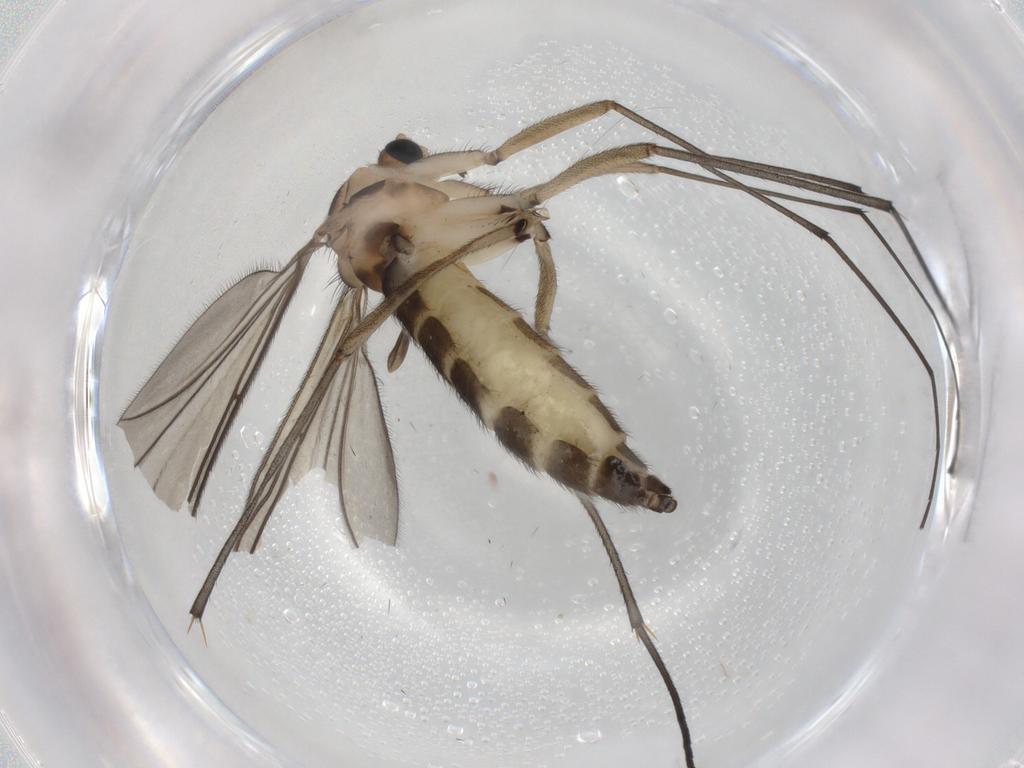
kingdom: Animalia
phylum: Arthropoda
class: Insecta
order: Diptera
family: Sciaridae
